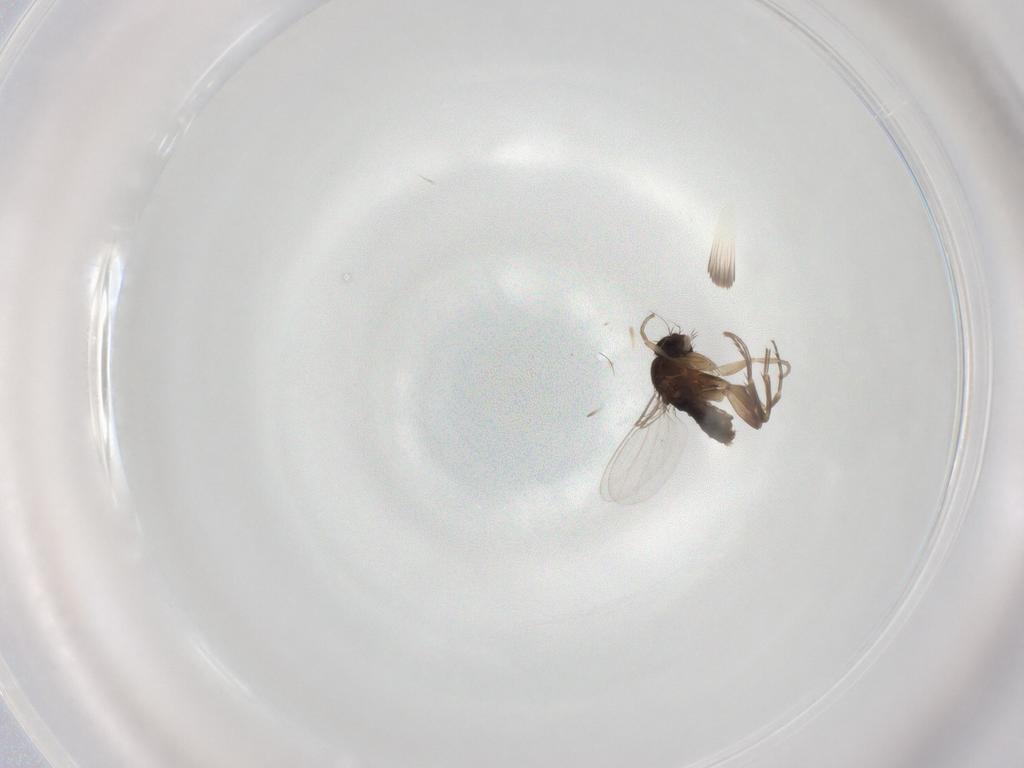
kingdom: Animalia
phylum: Arthropoda
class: Insecta
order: Diptera
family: Phoridae
